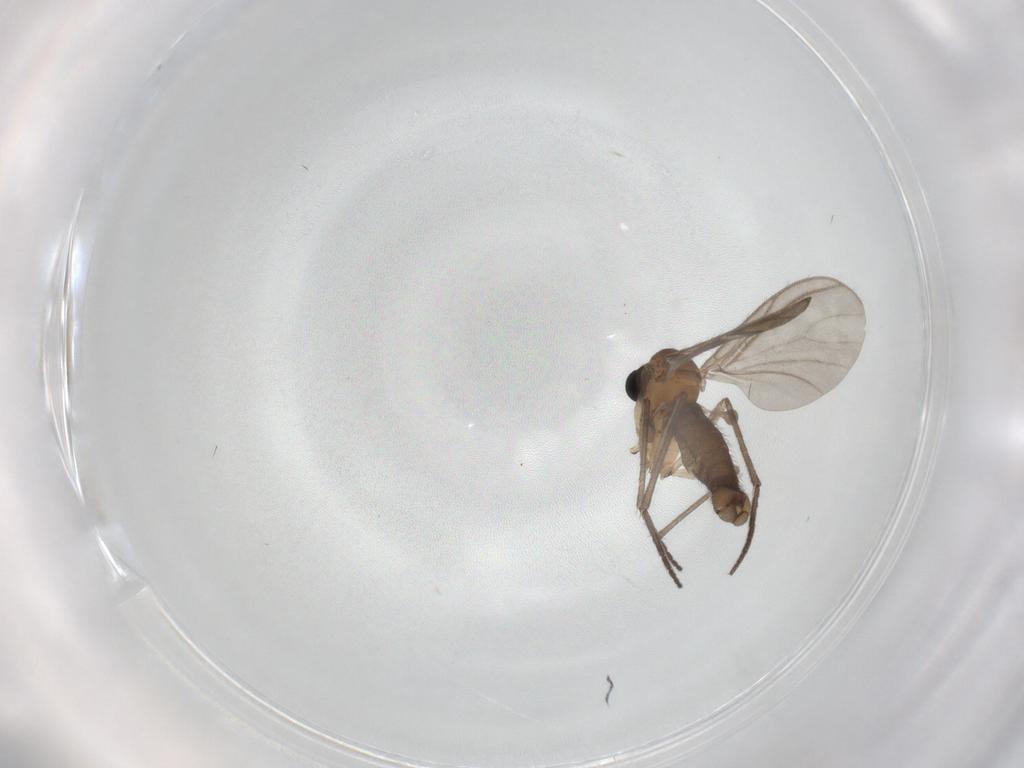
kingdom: Animalia
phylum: Arthropoda
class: Insecta
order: Diptera
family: Sciaridae
